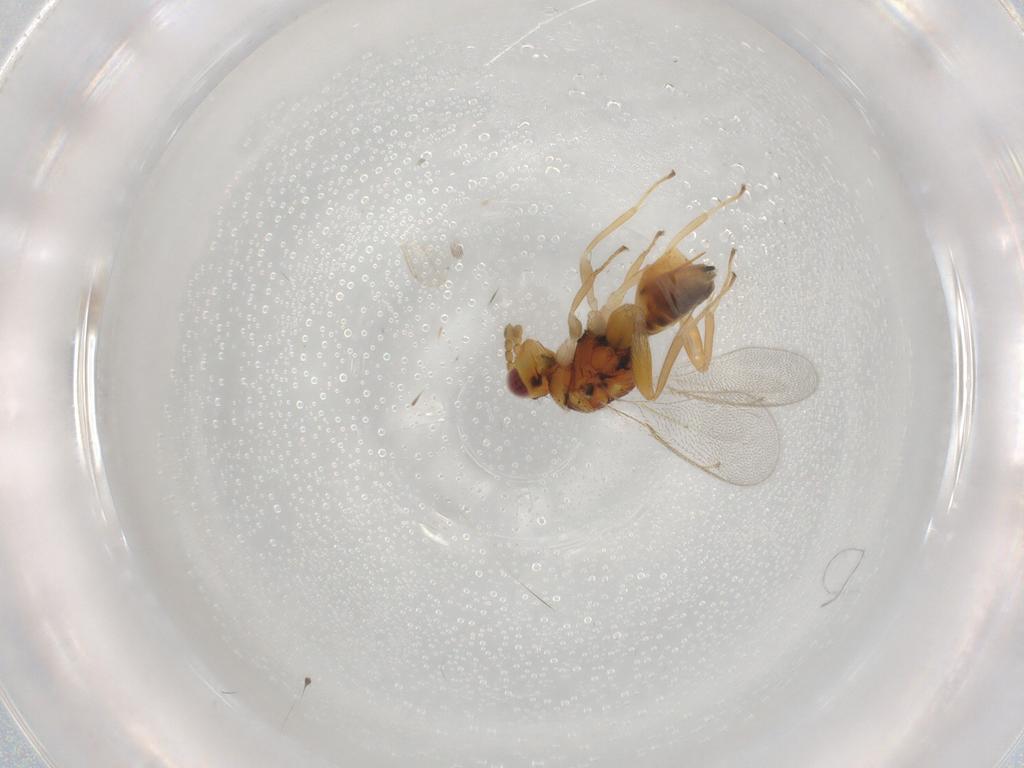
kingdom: Animalia
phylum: Arthropoda
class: Insecta
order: Hymenoptera
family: Eulophidae
